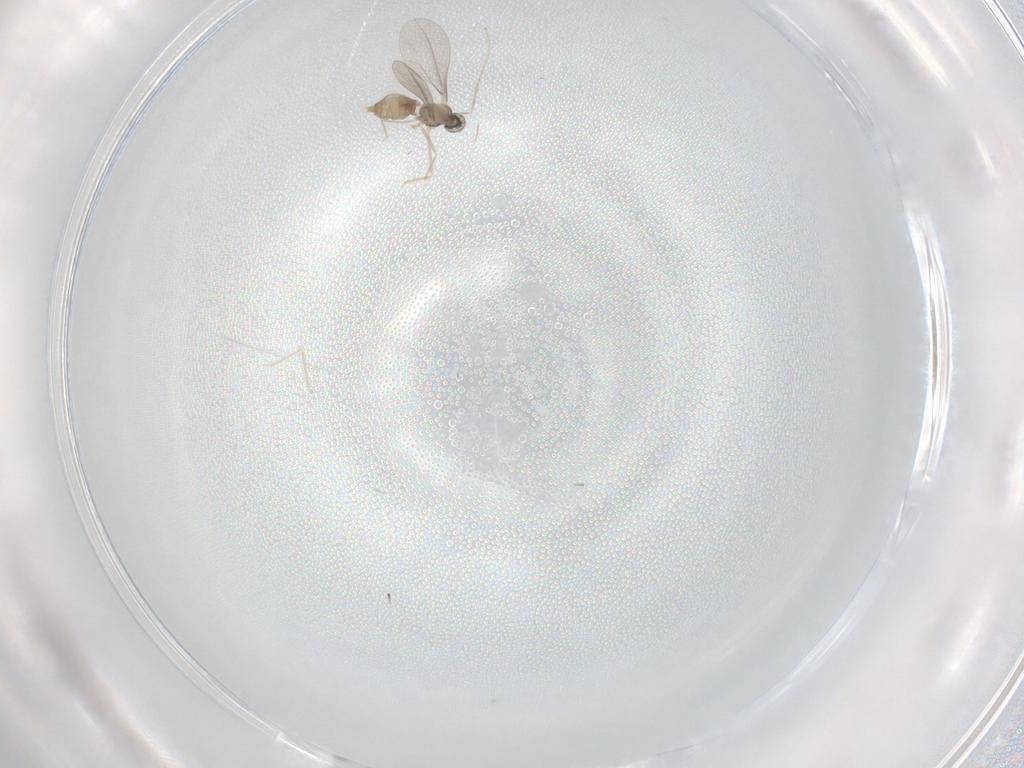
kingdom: Animalia
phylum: Arthropoda
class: Insecta
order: Diptera
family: Cecidomyiidae
